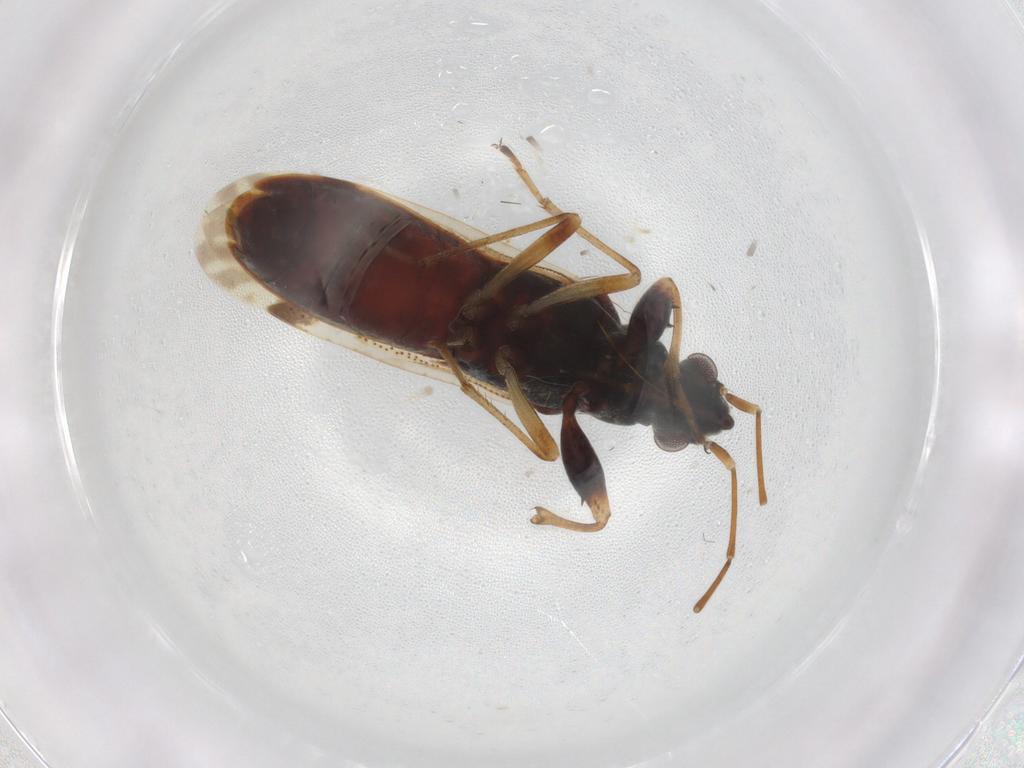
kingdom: Animalia
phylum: Arthropoda
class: Insecta
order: Hemiptera
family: Rhyparochromidae
